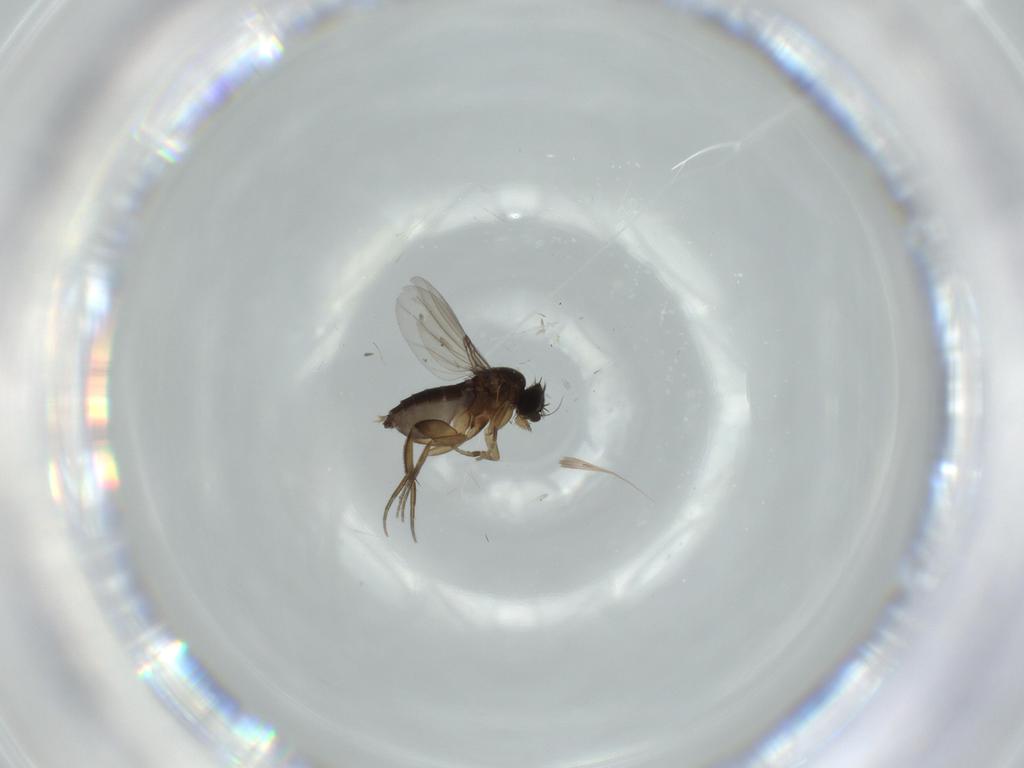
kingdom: Animalia
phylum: Arthropoda
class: Insecta
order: Diptera
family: Phoridae
